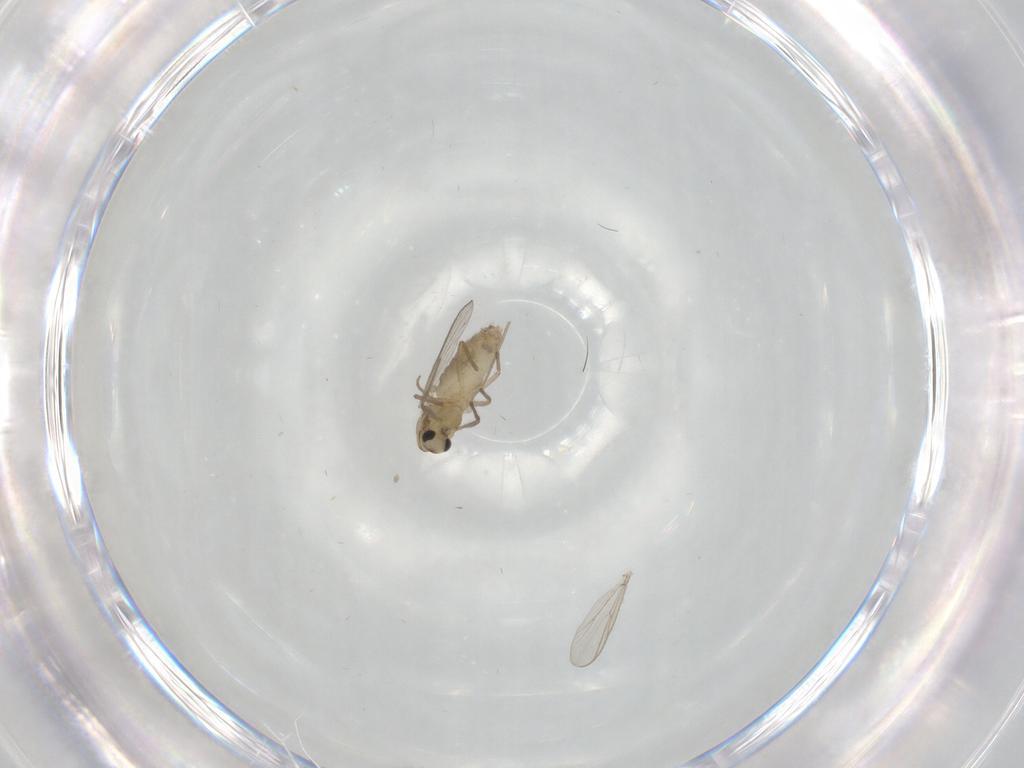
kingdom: Animalia
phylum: Arthropoda
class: Insecta
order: Diptera
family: Chironomidae
